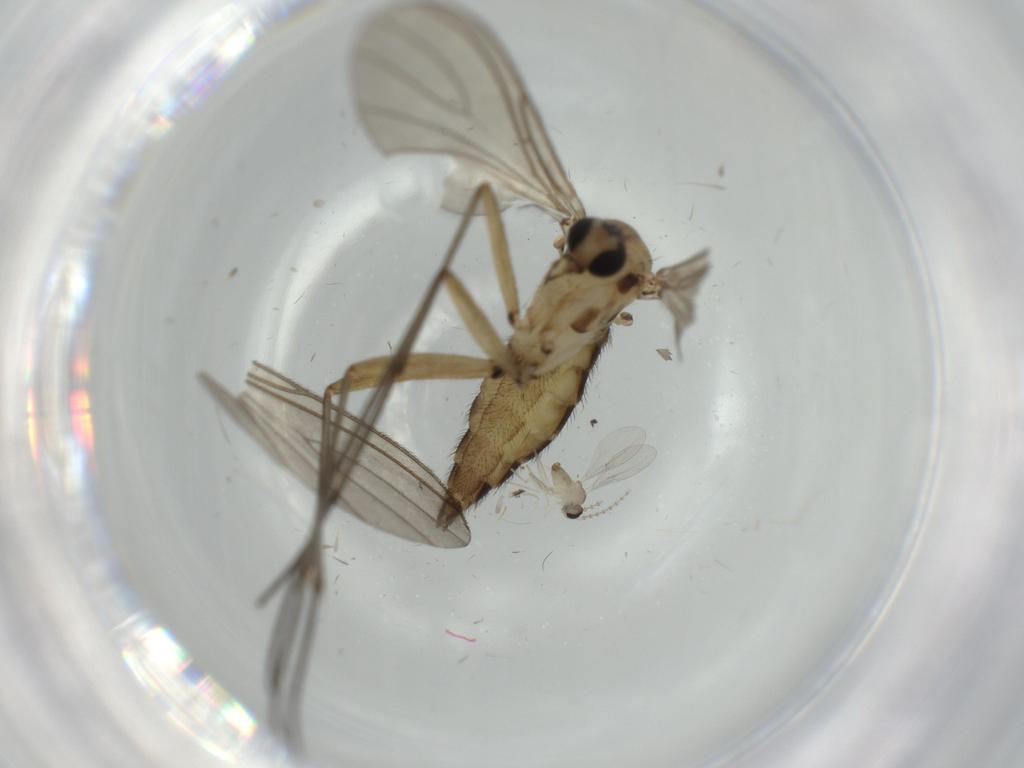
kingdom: Animalia
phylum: Arthropoda
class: Insecta
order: Diptera
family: Sciaridae
